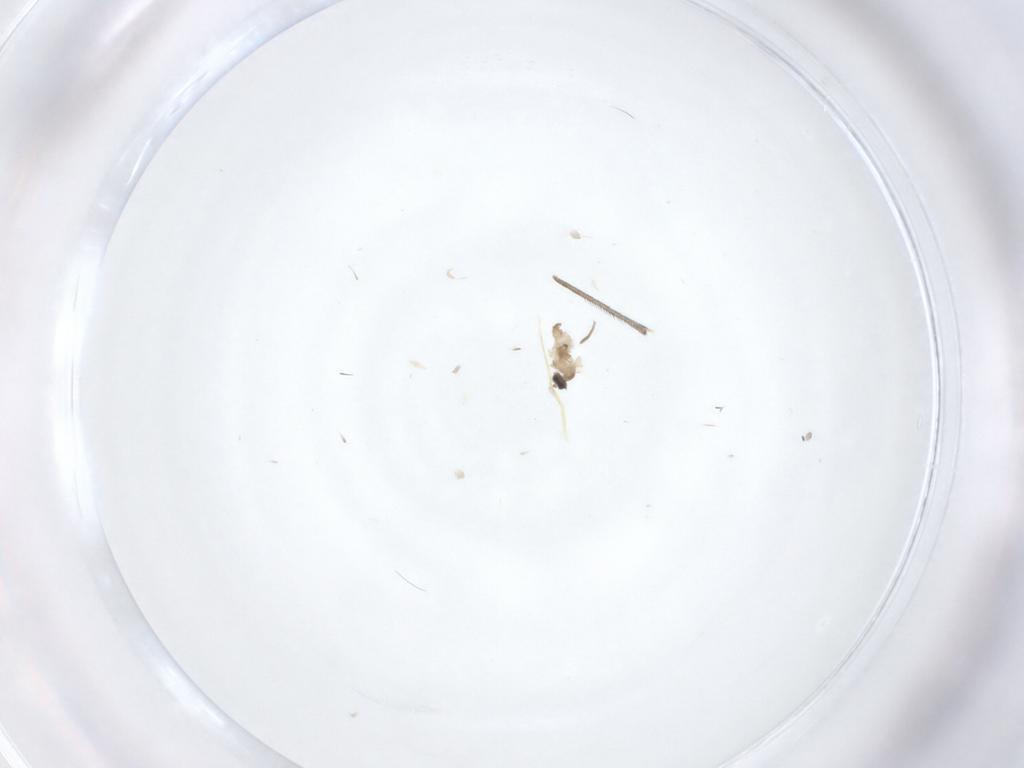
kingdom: Animalia
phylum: Arthropoda
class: Insecta
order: Diptera
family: Cecidomyiidae
